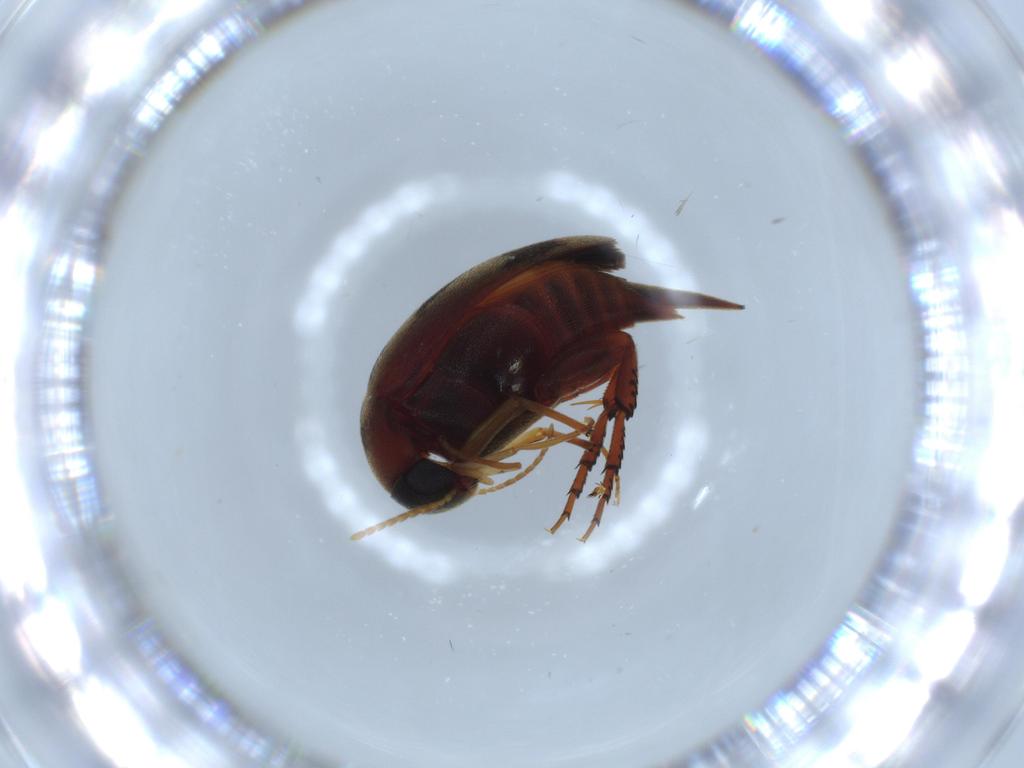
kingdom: Animalia
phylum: Arthropoda
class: Insecta
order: Coleoptera
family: Mordellidae
